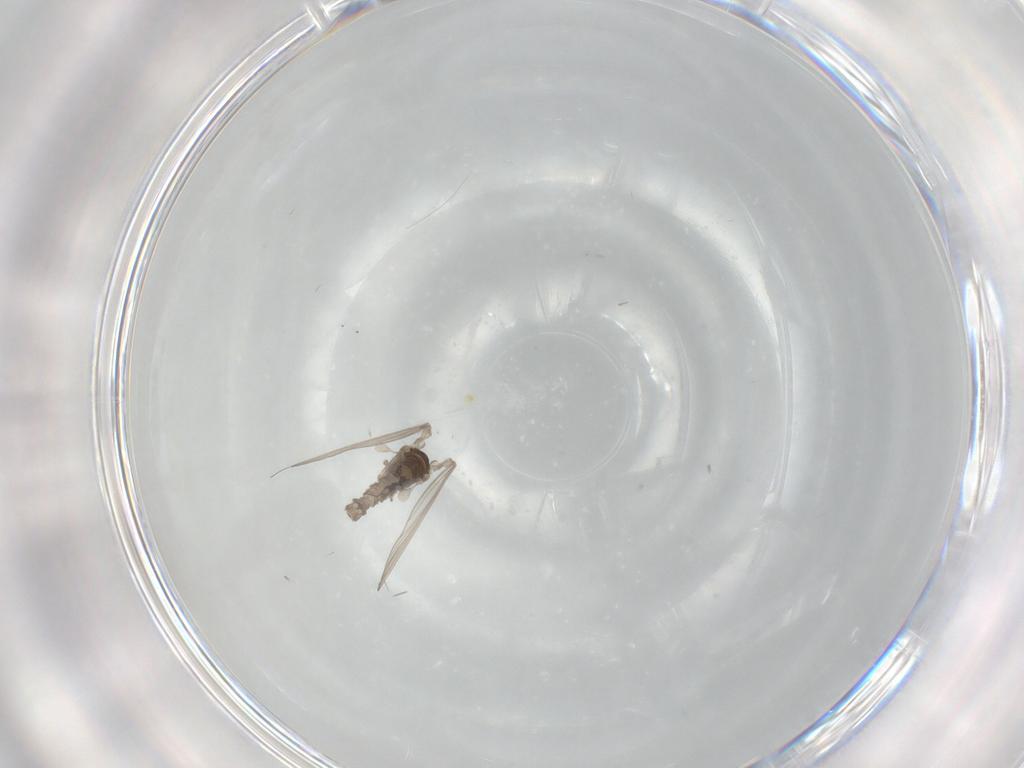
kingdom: Animalia
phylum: Arthropoda
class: Insecta
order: Diptera
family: Psychodidae
